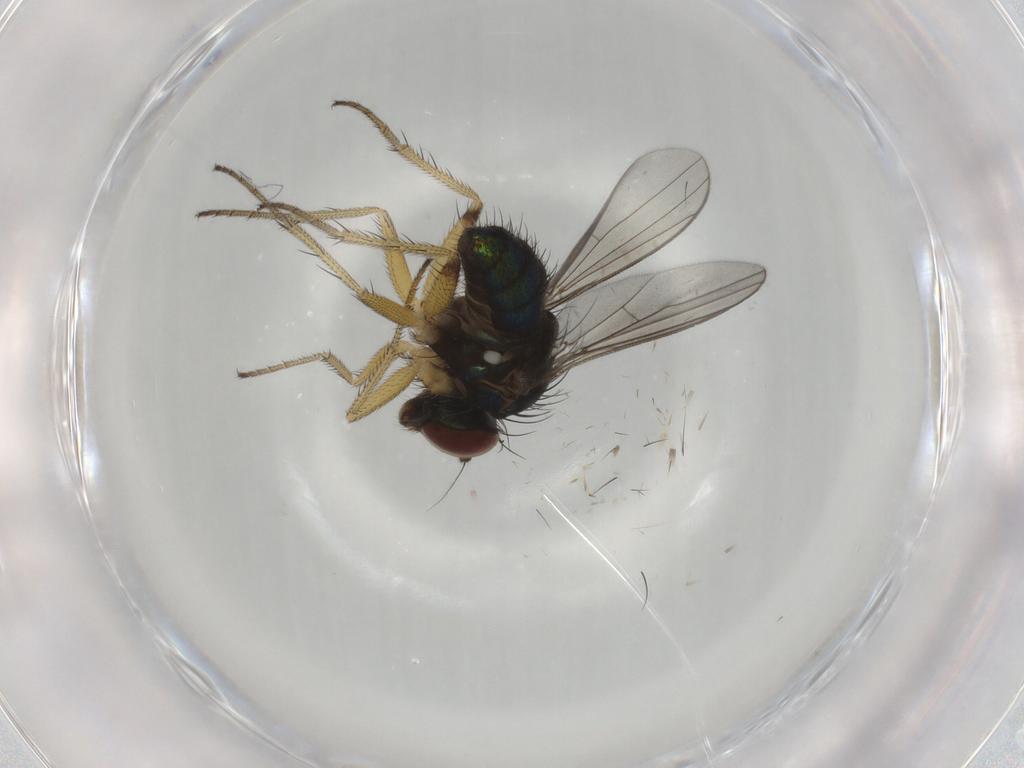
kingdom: Animalia
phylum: Arthropoda
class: Insecta
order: Diptera
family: Dolichopodidae
